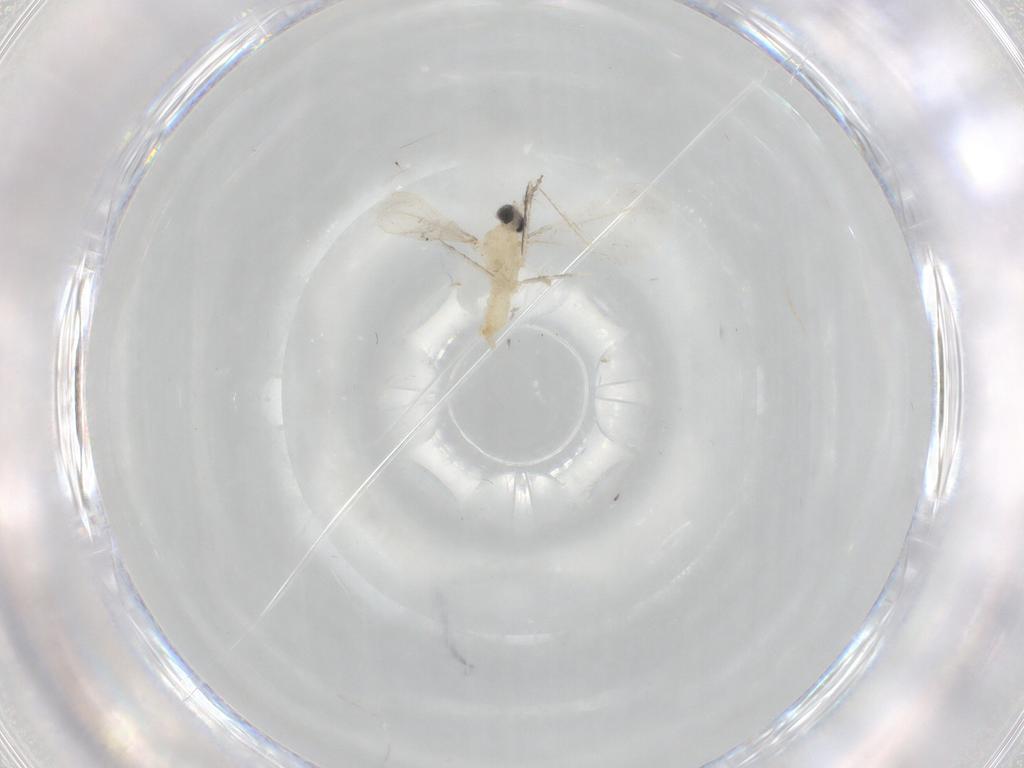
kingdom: Animalia
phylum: Arthropoda
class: Insecta
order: Diptera
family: Cecidomyiidae
